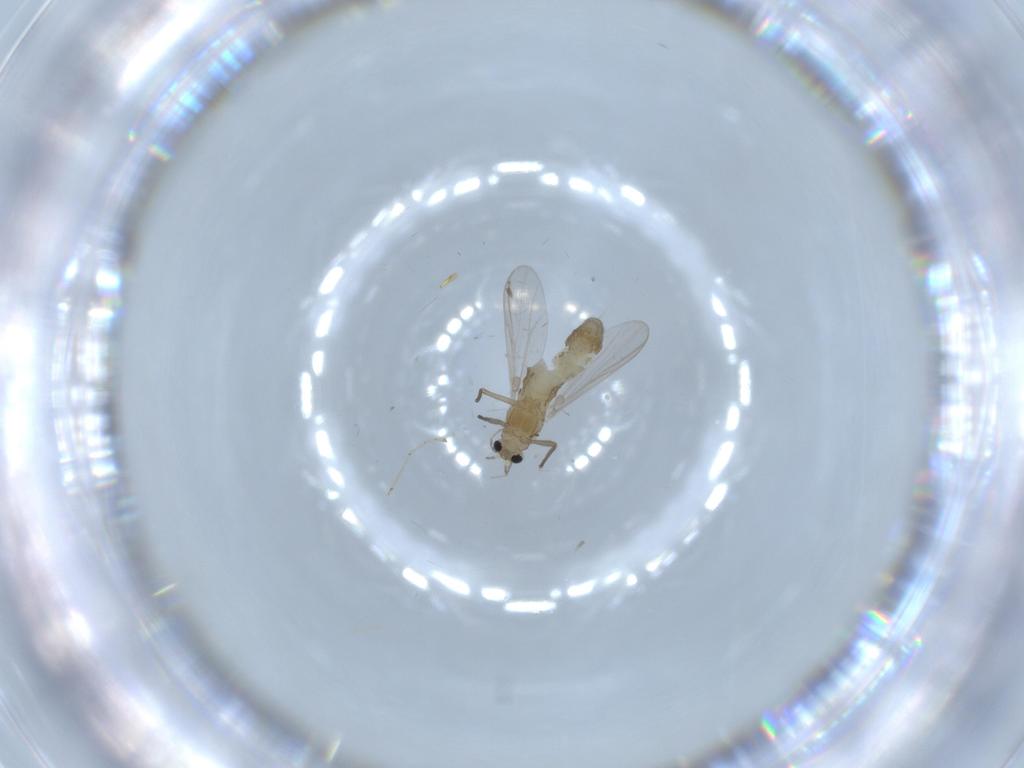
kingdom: Animalia
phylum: Arthropoda
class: Insecta
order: Diptera
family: Chironomidae
